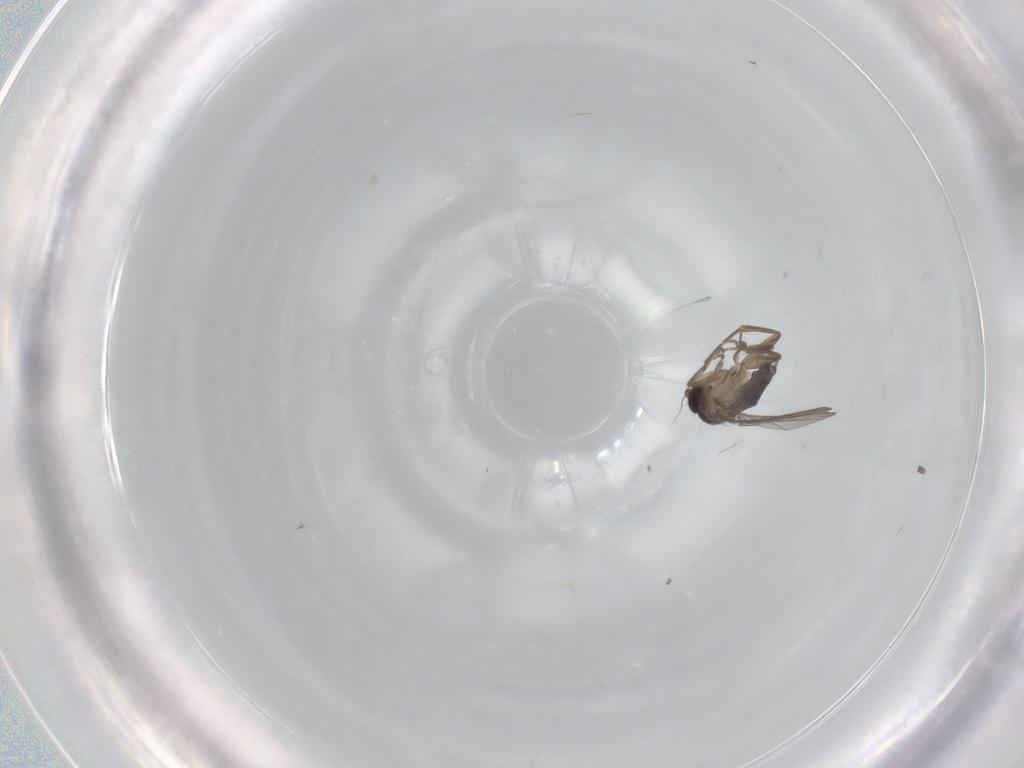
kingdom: Animalia
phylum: Arthropoda
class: Insecta
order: Diptera
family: Phoridae
